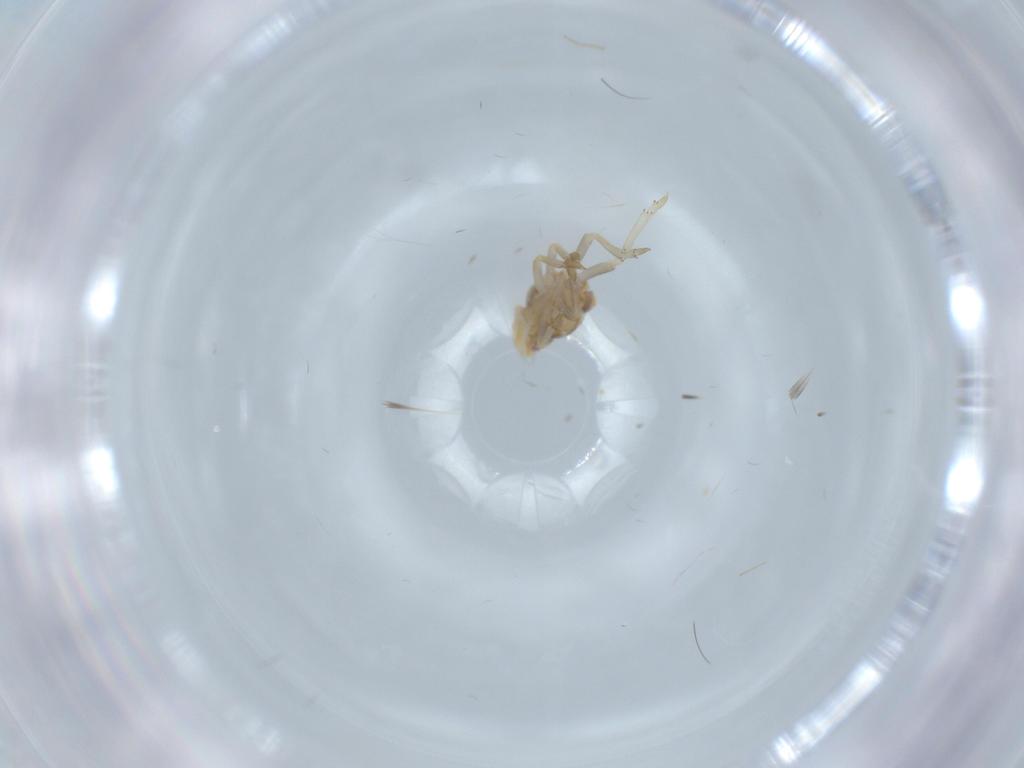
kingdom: Animalia
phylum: Arthropoda
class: Insecta
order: Hemiptera
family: Cercopidae
